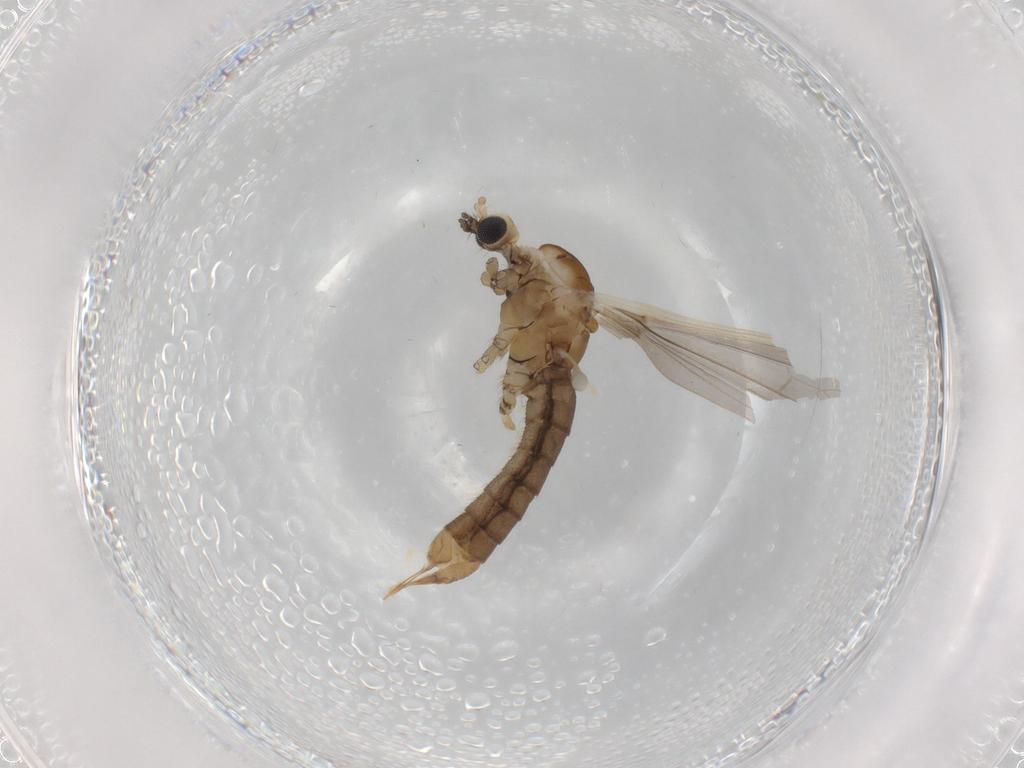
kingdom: Animalia
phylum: Arthropoda
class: Insecta
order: Diptera
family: Limoniidae
